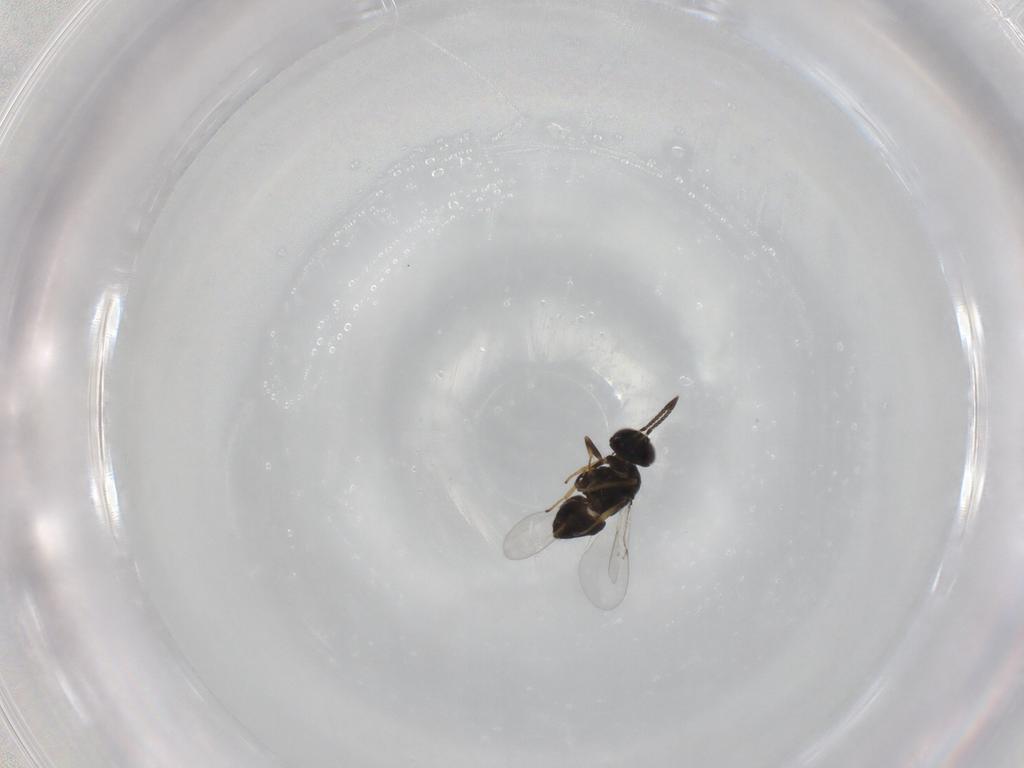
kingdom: Animalia
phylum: Arthropoda
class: Insecta
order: Hymenoptera
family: Encyrtidae
